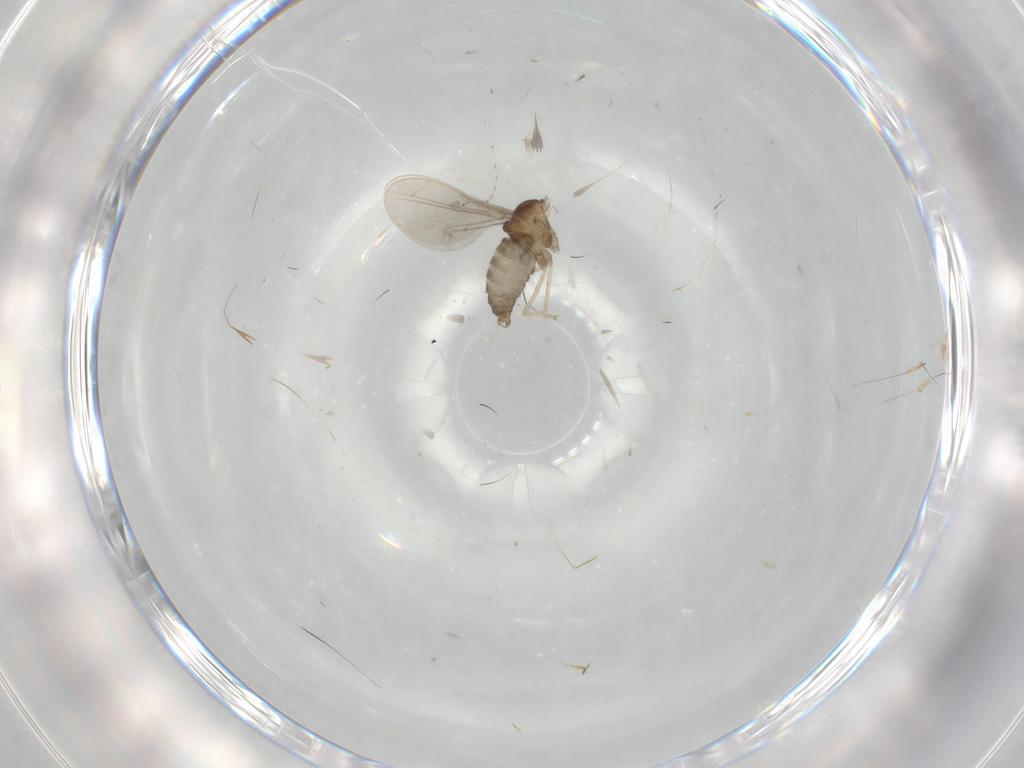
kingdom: Animalia
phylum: Arthropoda
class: Insecta
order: Diptera
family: Cecidomyiidae
